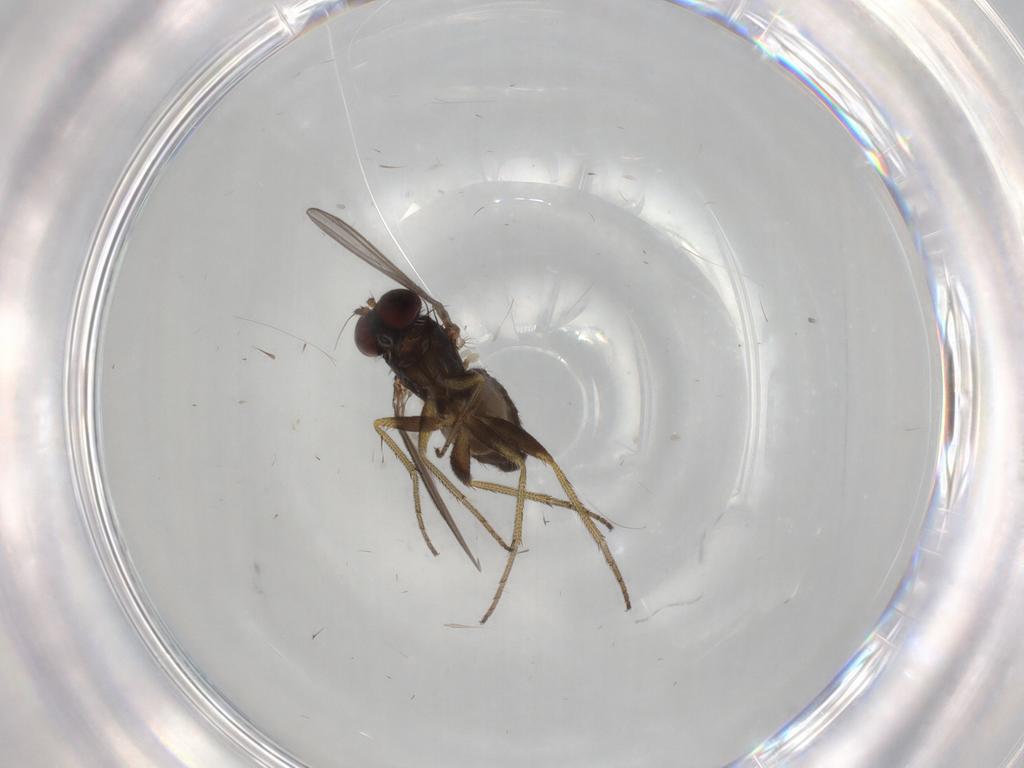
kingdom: Animalia
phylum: Arthropoda
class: Insecta
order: Diptera
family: Dolichopodidae
